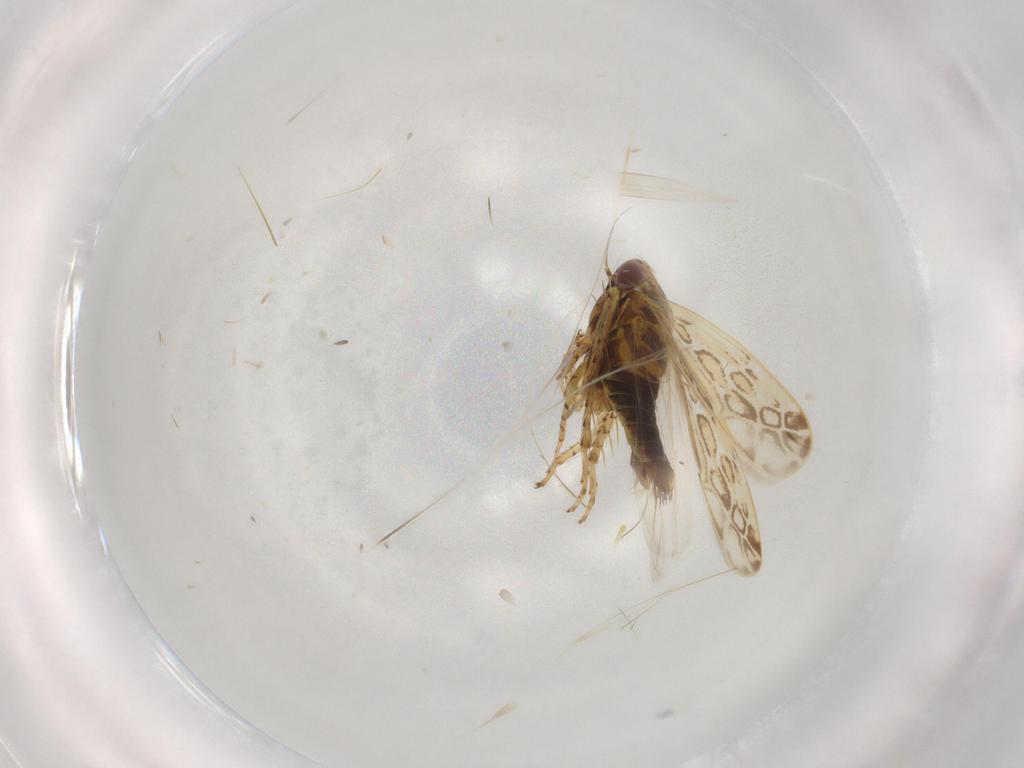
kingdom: Animalia
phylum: Arthropoda
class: Insecta
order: Hemiptera
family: Cicadellidae
